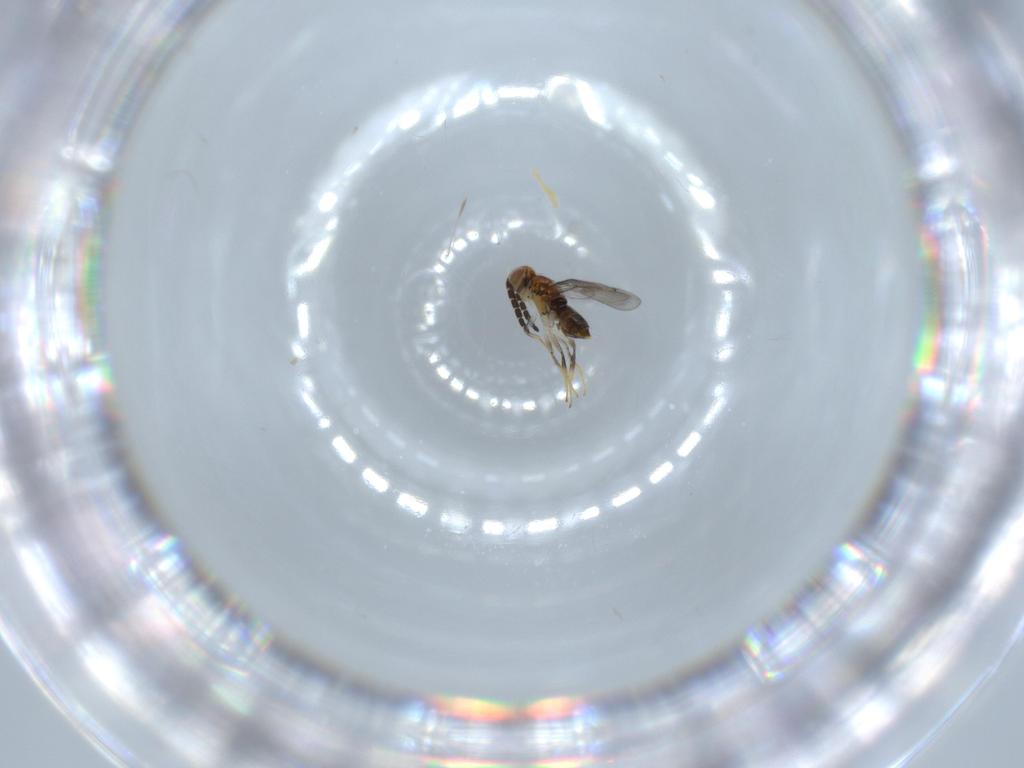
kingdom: Animalia
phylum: Arthropoda
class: Insecta
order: Hymenoptera
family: Aphelinidae
